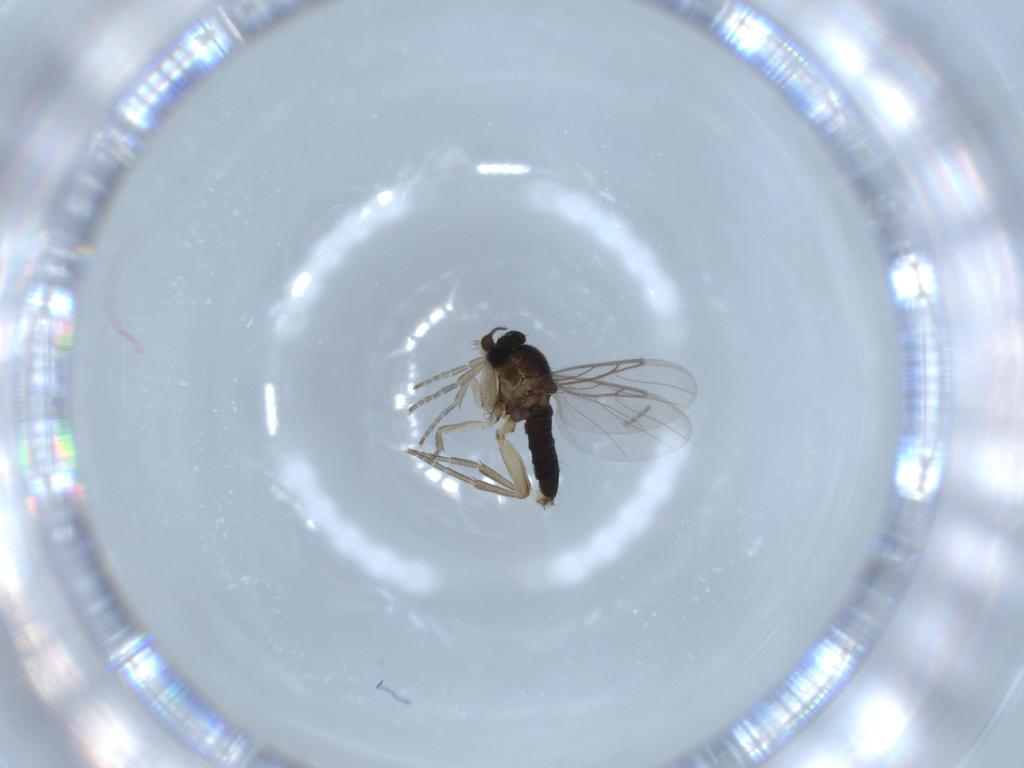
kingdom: Animalia
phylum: Arthropoda
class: Insecta
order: Diptera
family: Phoridae
